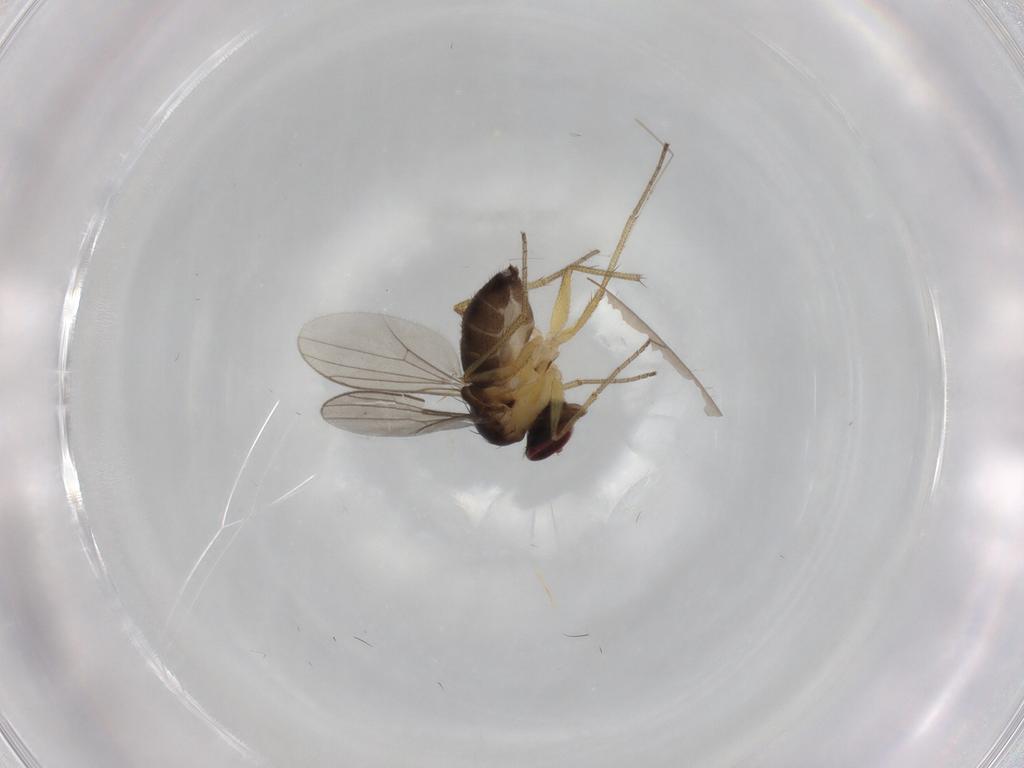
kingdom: Animalia
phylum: Arthropoda
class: Insecta
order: Diptera
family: Dolichopodidae
